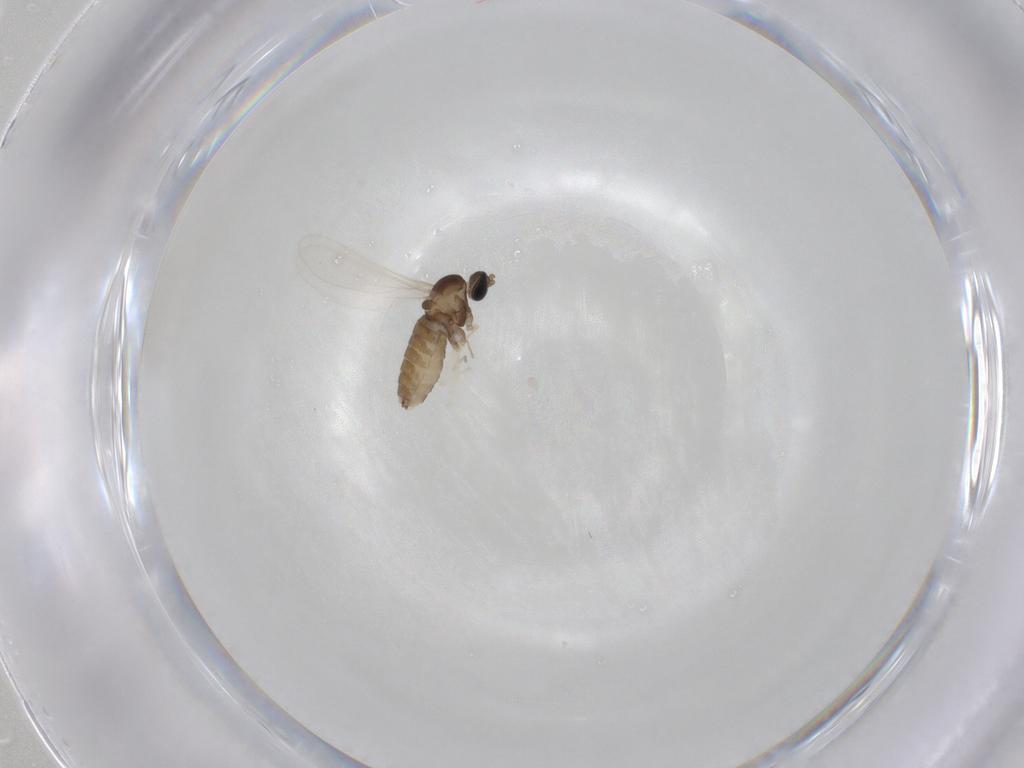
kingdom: Animalia
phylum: Arthropoda
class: Insecta
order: Diptera
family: Cecidomyiidae
